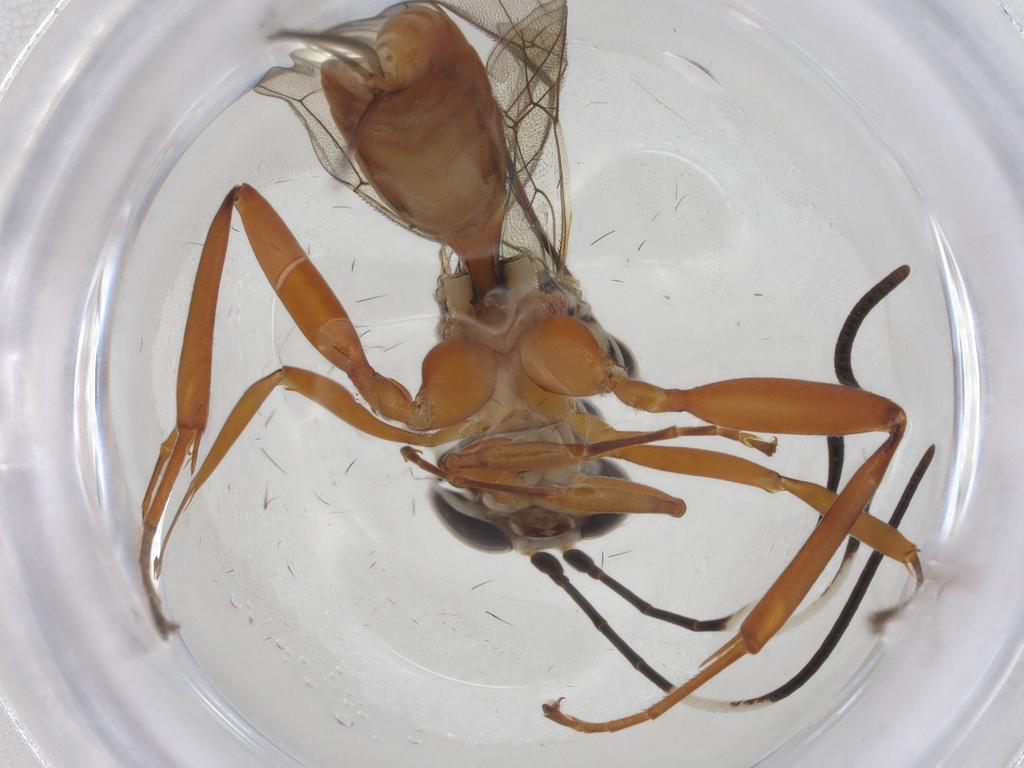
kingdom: Animalia
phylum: Arthropoda
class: Insecta
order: Hymenoptera
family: Ichneumonidae
